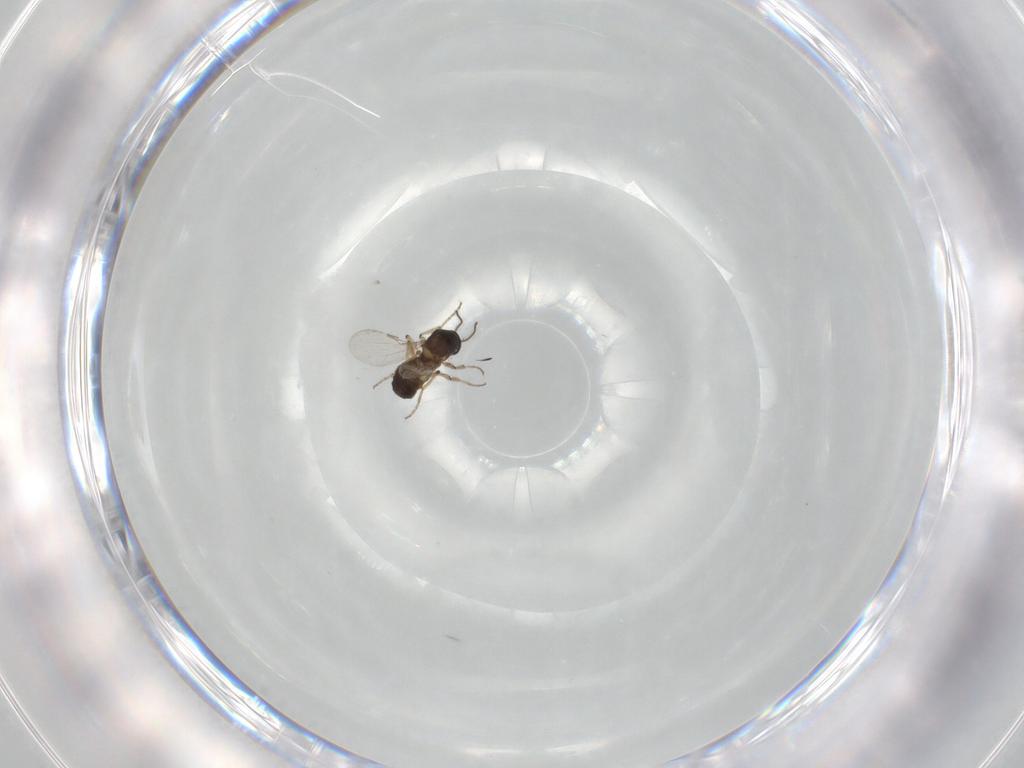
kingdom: Animalia
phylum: Arthropoda
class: Insecta
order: Diptera
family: Ceratopogonidae
